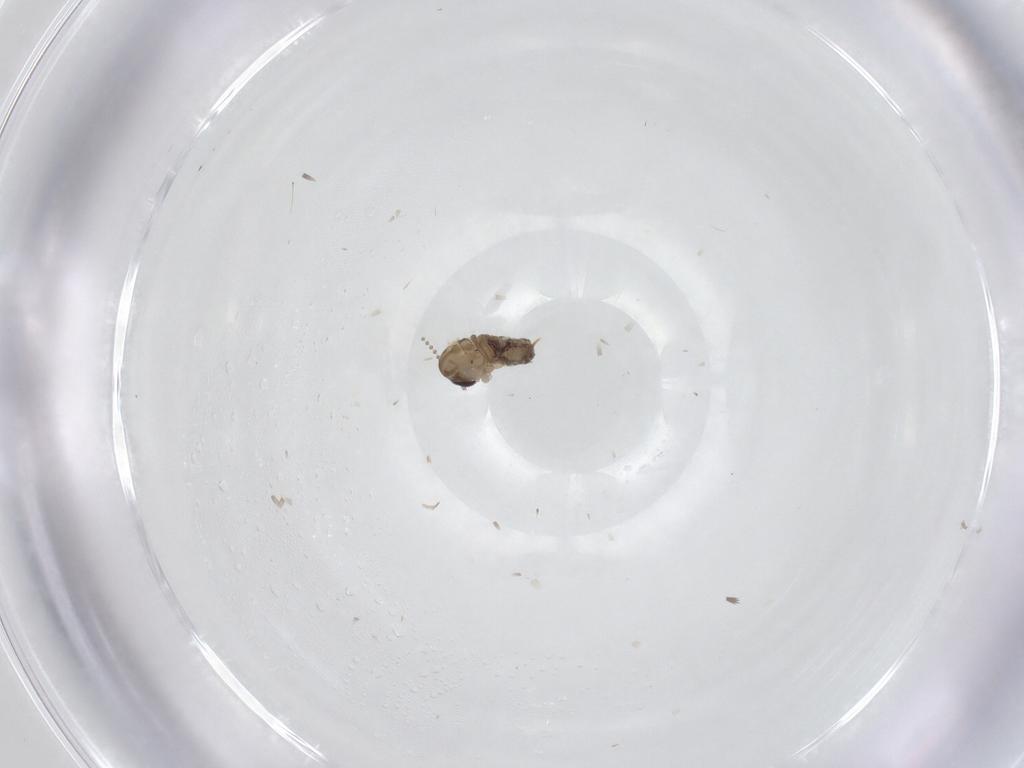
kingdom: Animalia
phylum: Arthropoda
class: Insecta
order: Diptera
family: Psychodidae
